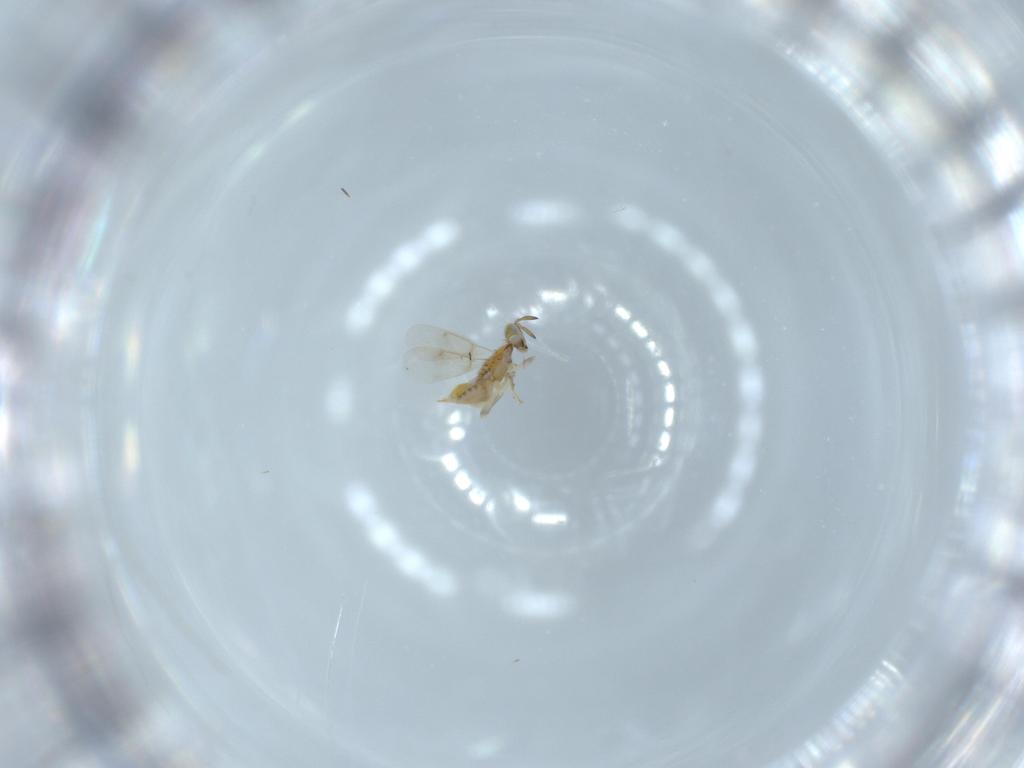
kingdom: Animalia
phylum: Arthropoda
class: Insecta
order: Hymenoptera
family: Aphelinidae
